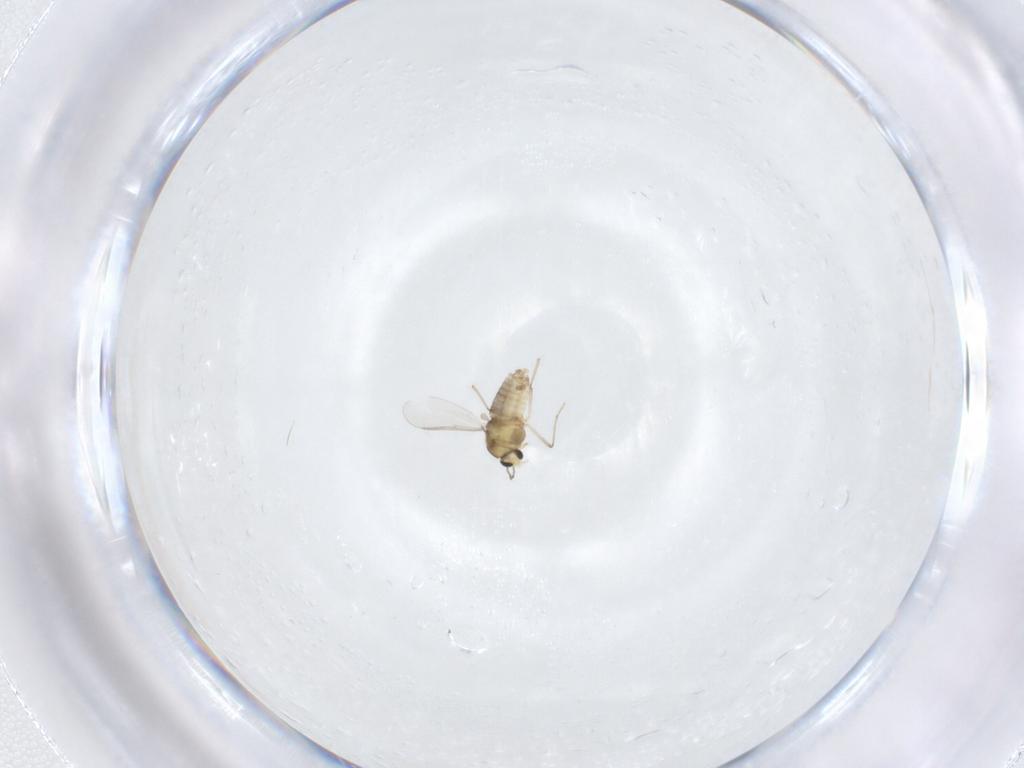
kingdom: Animalia
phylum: Arthropoda
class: Insecta
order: Diptera
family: Chironomidae
